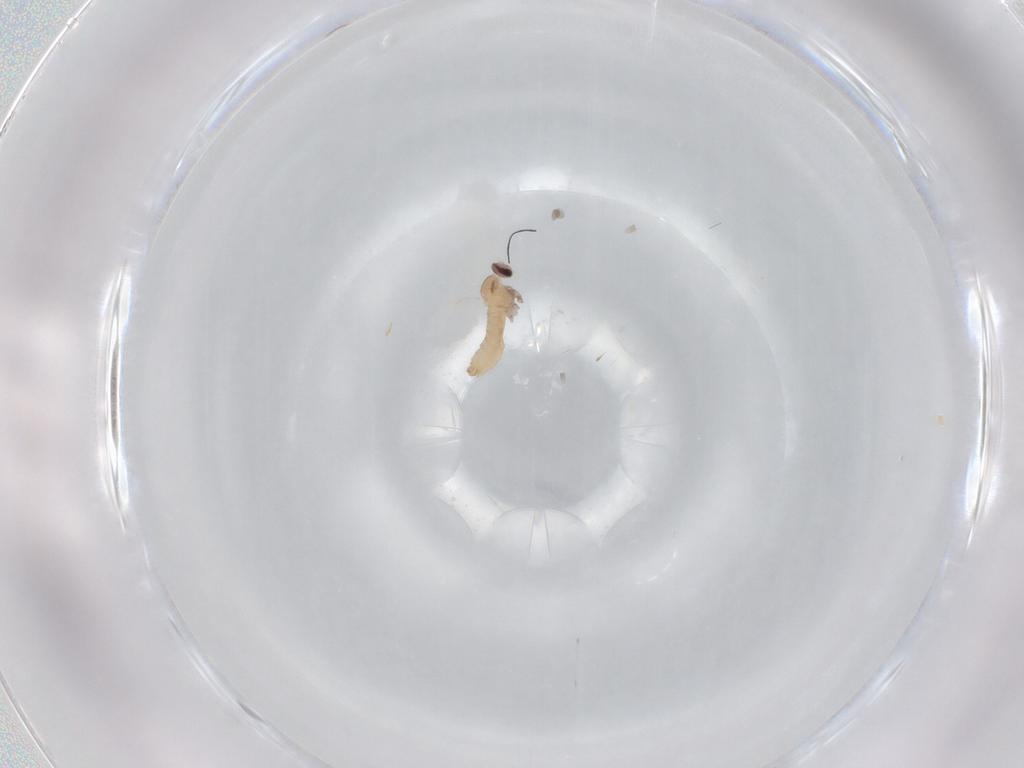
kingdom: Animalia
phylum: Arthropoda
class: Insecta
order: Diptera
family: Cecidomyiidae
